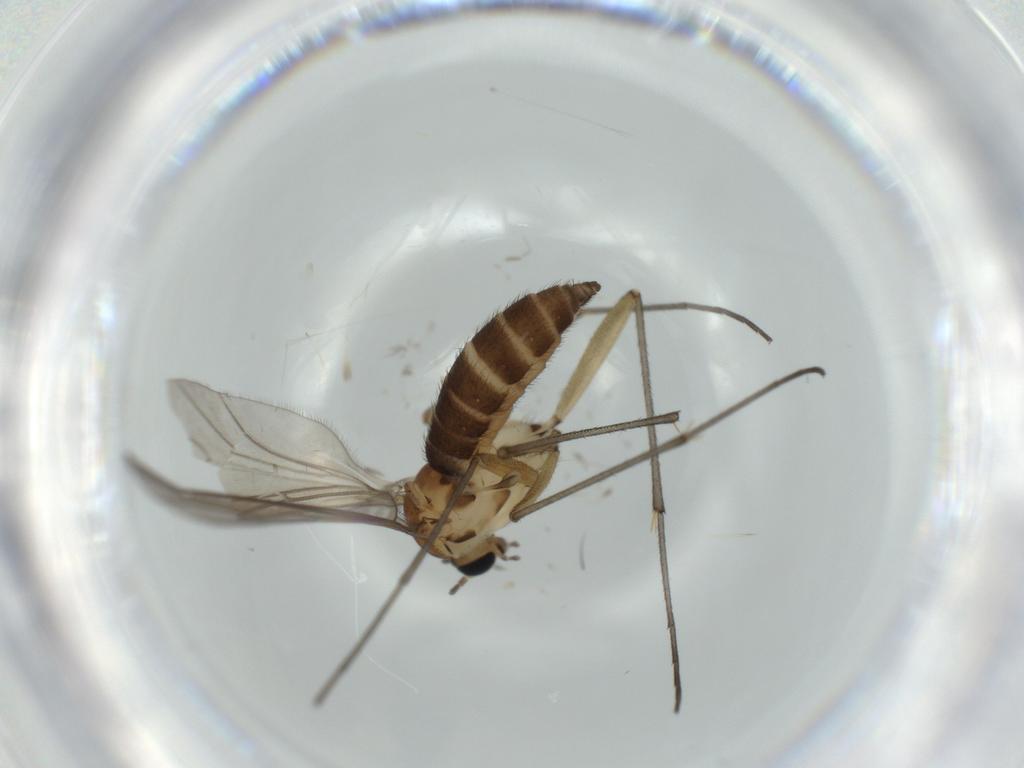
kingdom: Animalia
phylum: Arthropoda
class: Insecta
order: Diptera
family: Sciaridae
